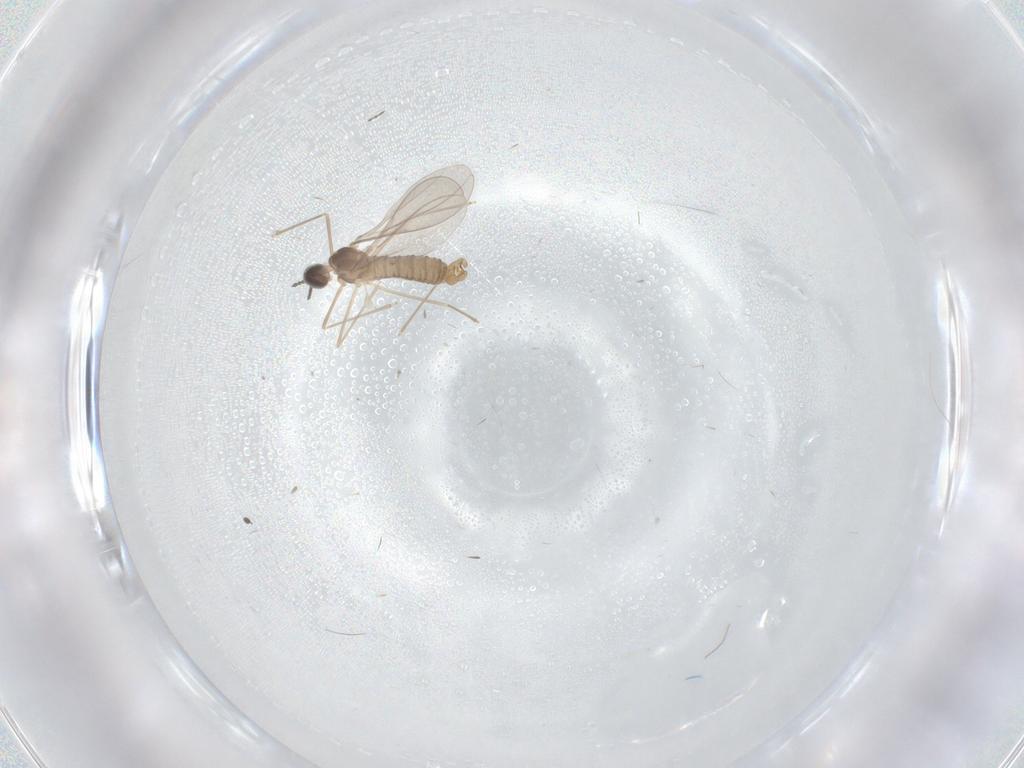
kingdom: Animalia
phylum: Arthropoda
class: Insecta
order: Diptera
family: Cecidomyiidae
